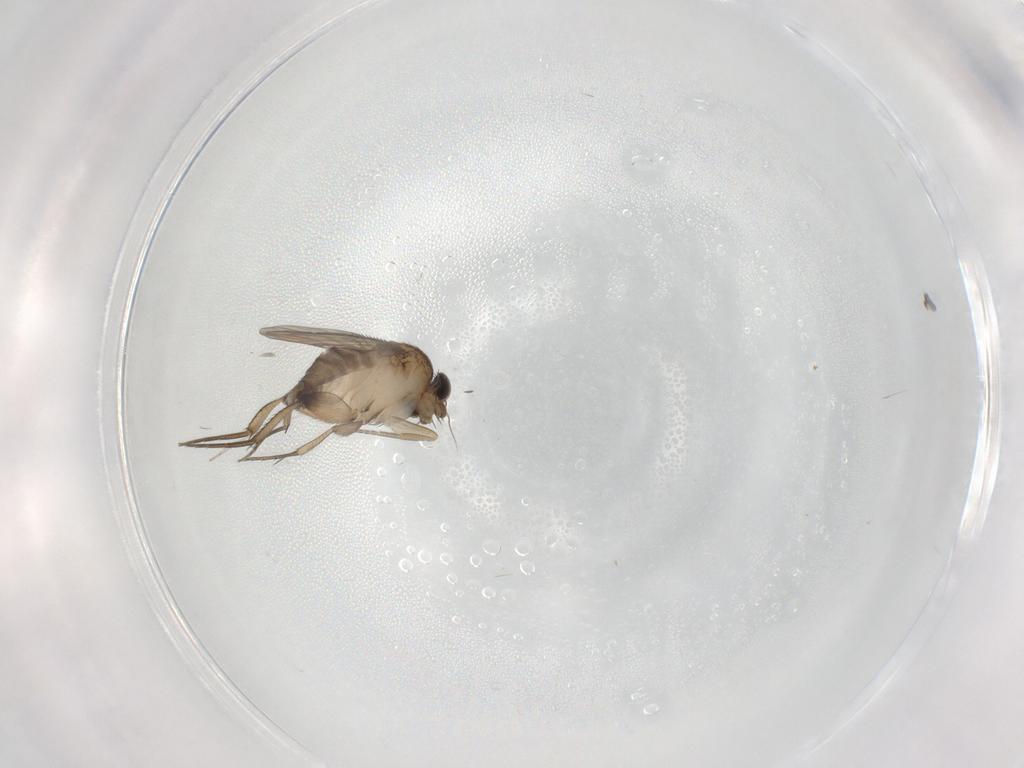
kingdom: Animalia
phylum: Arthropoda
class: Insecta
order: Diptera
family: Phoridae
